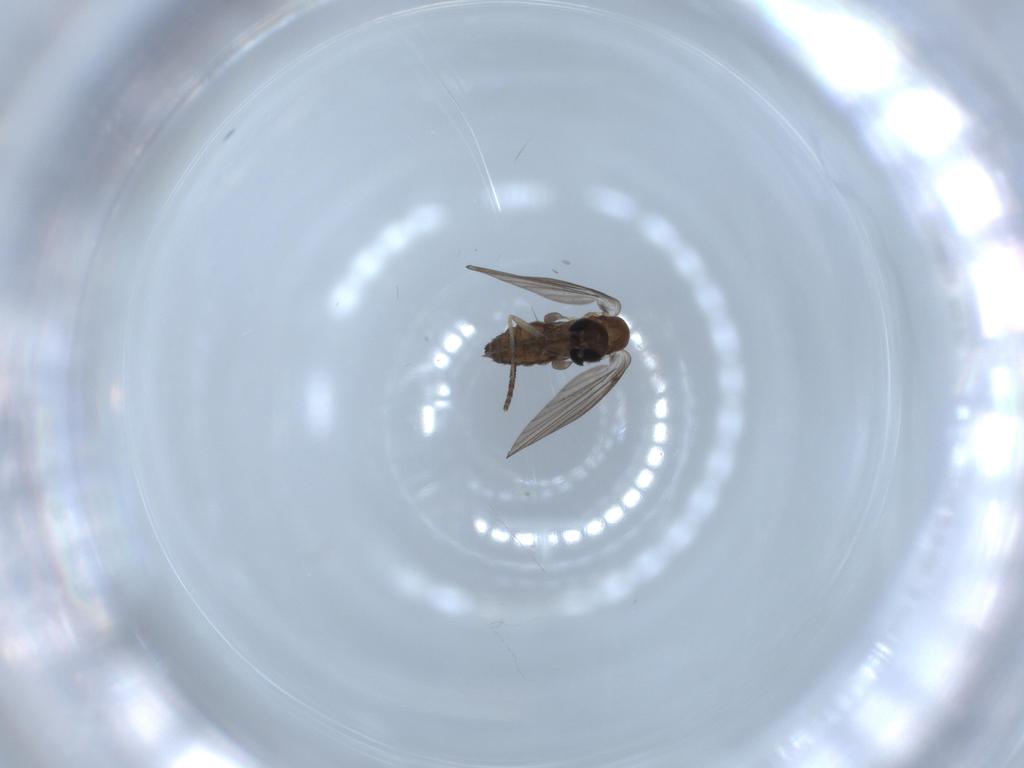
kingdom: Animalia
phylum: Arthropoda
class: Insecta
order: Diptera
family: Psychodidae
